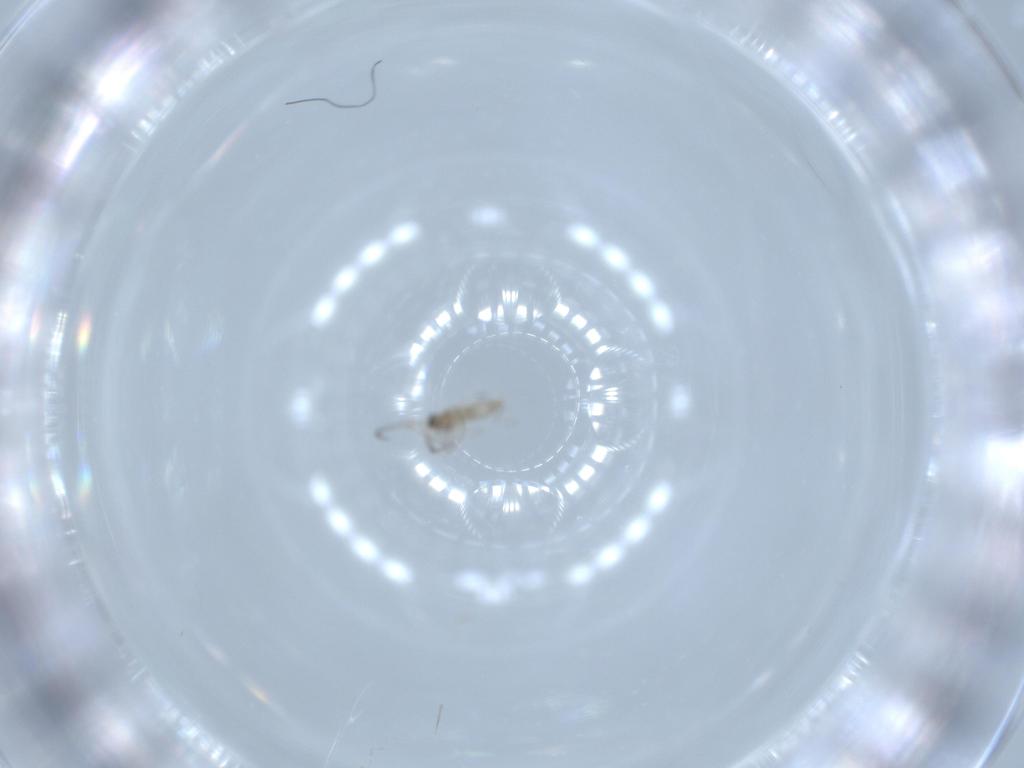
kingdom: Animalia
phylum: Arthropoda
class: Insecta
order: Diptera
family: Cecidomyiidae
